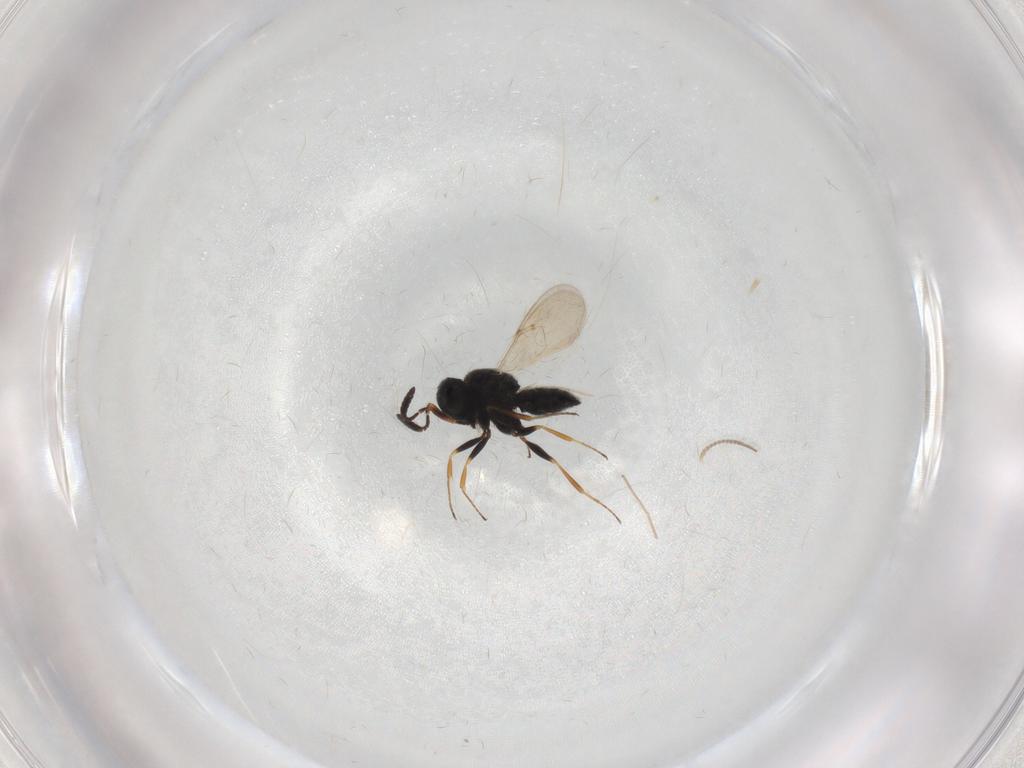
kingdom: Animalia
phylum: Arthropoda
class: Insecta
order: Coleoptera
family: Curculionidae
